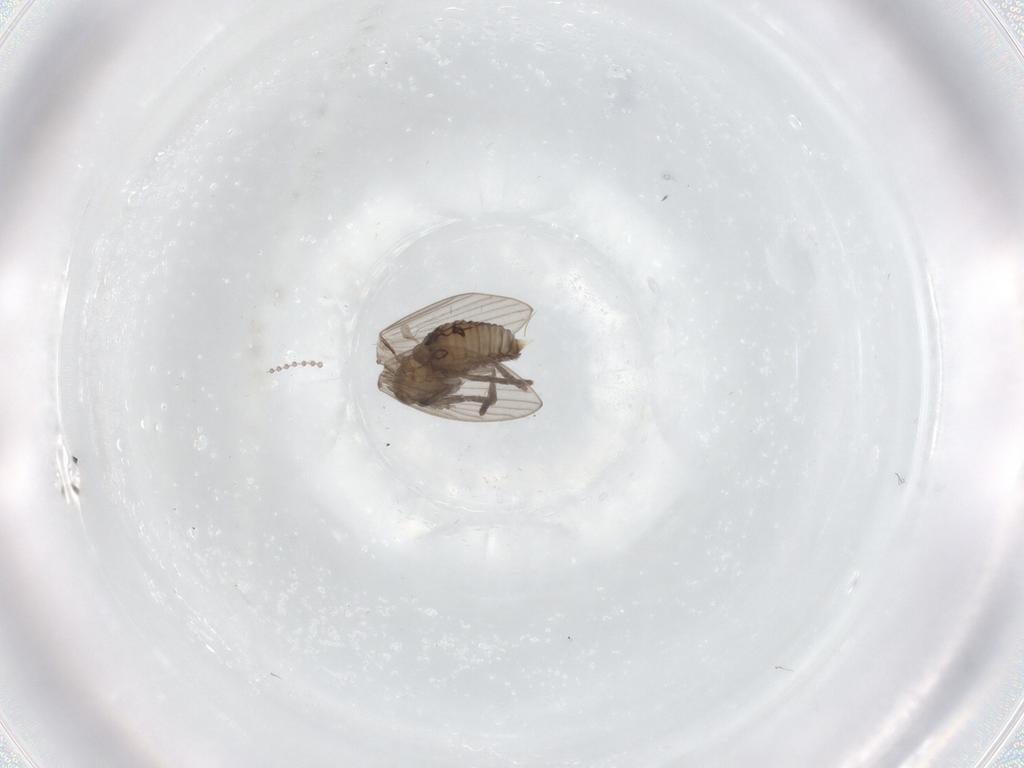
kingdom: Animalia
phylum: Arthropoda
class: Insecta
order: Diptera
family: Psychodidae
